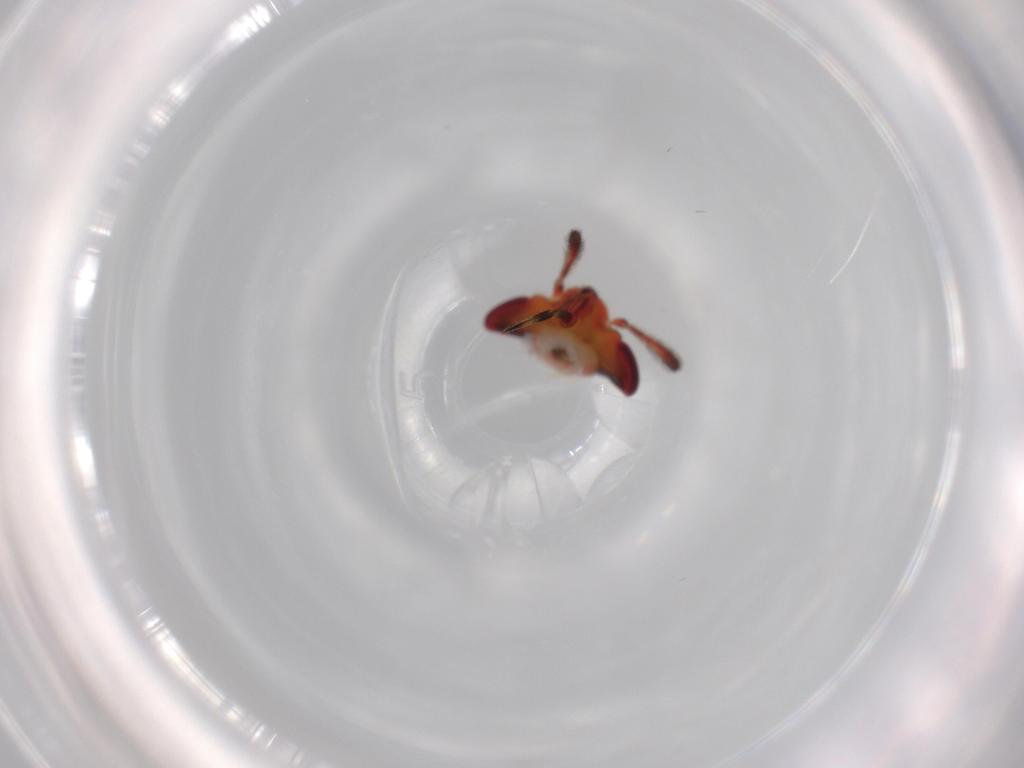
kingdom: Animalia
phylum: Arthropoda
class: Insecta
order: Hemiptera
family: Miridae
